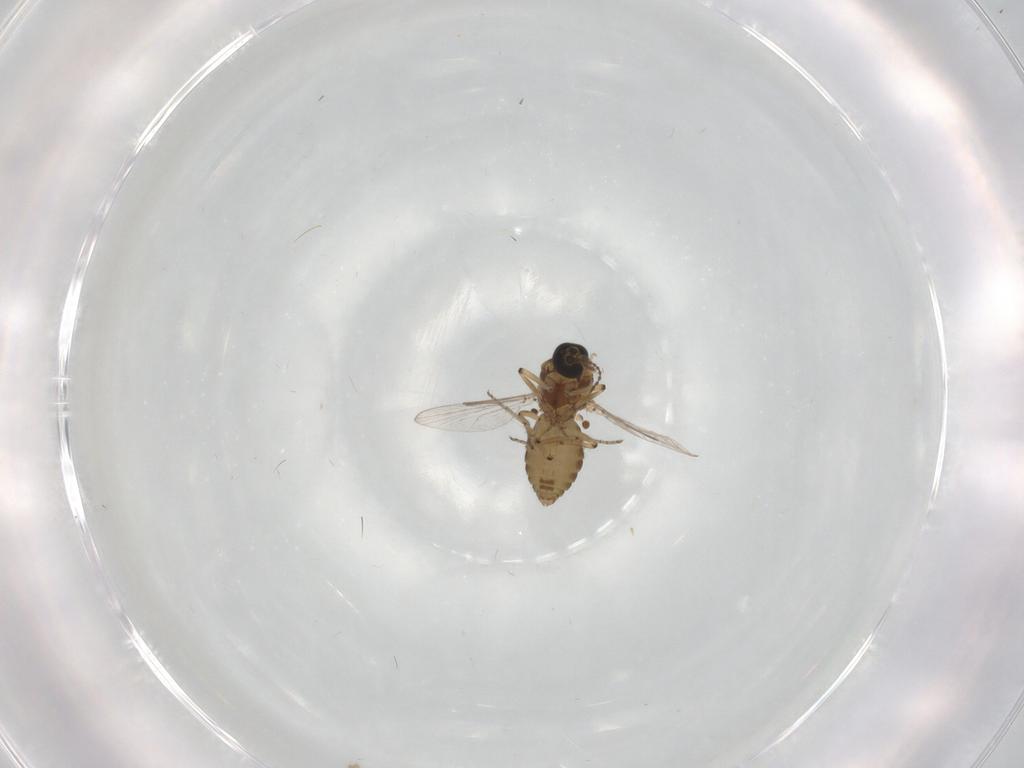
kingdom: Animalia
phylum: Arthropoda
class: Insecta
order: Diptera
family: Ceratopogonidae
